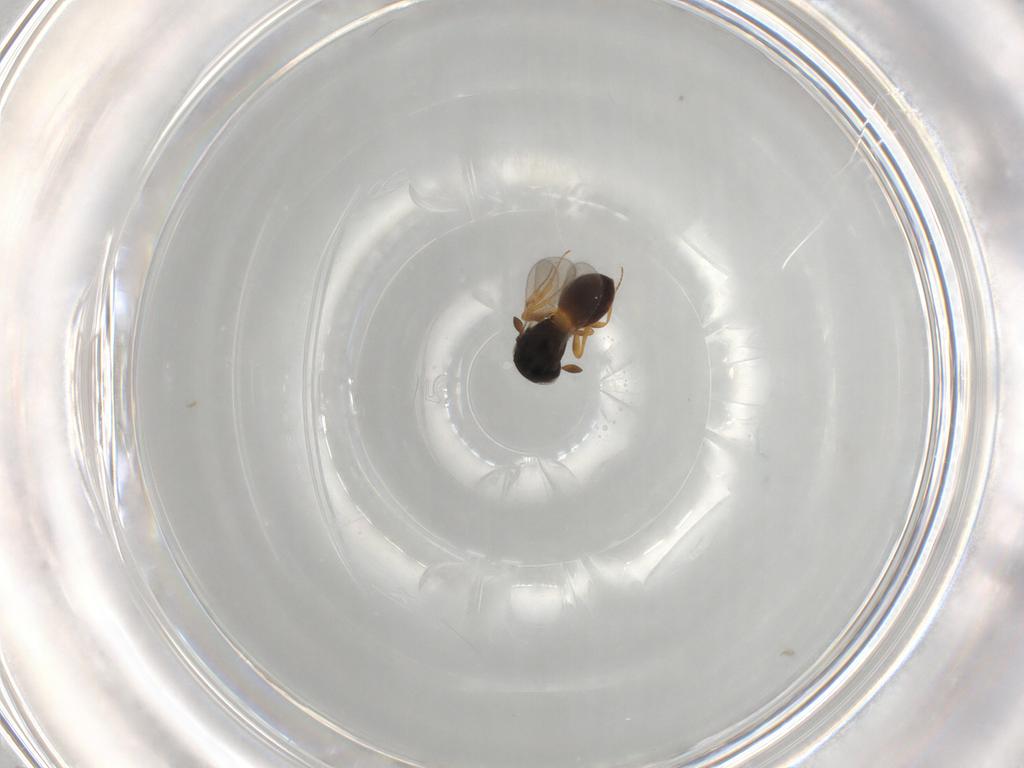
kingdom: Animalia
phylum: Arthropoda
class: Insecta
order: Hymenoptera
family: Scelionidae
